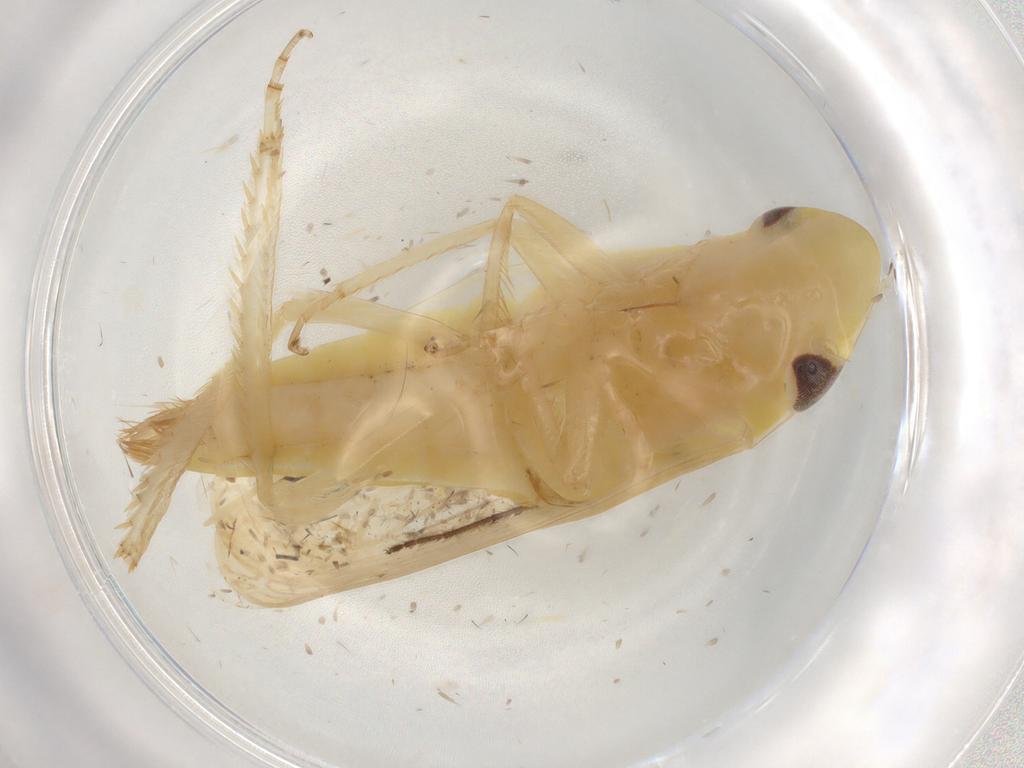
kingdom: Animalia
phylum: Arthropoda
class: Insecta
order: Hemiptera
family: Cicadellidae
